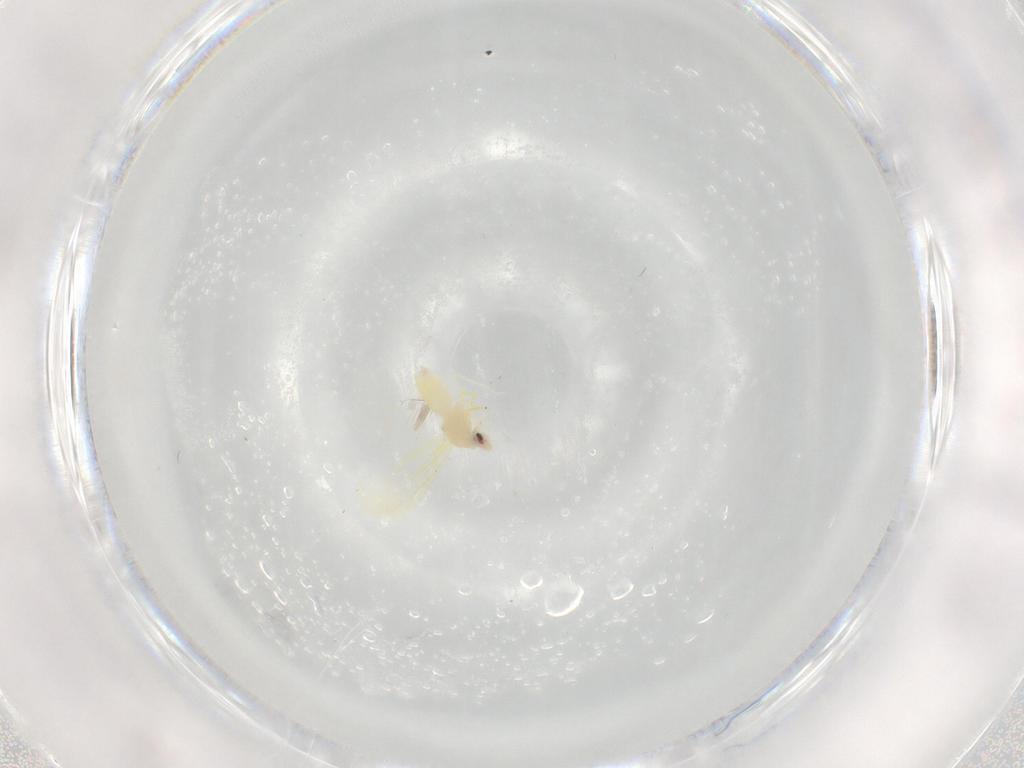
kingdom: Animalia
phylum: Arthropoda
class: Insecta
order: Hemiptera
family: Aleyrodidae
